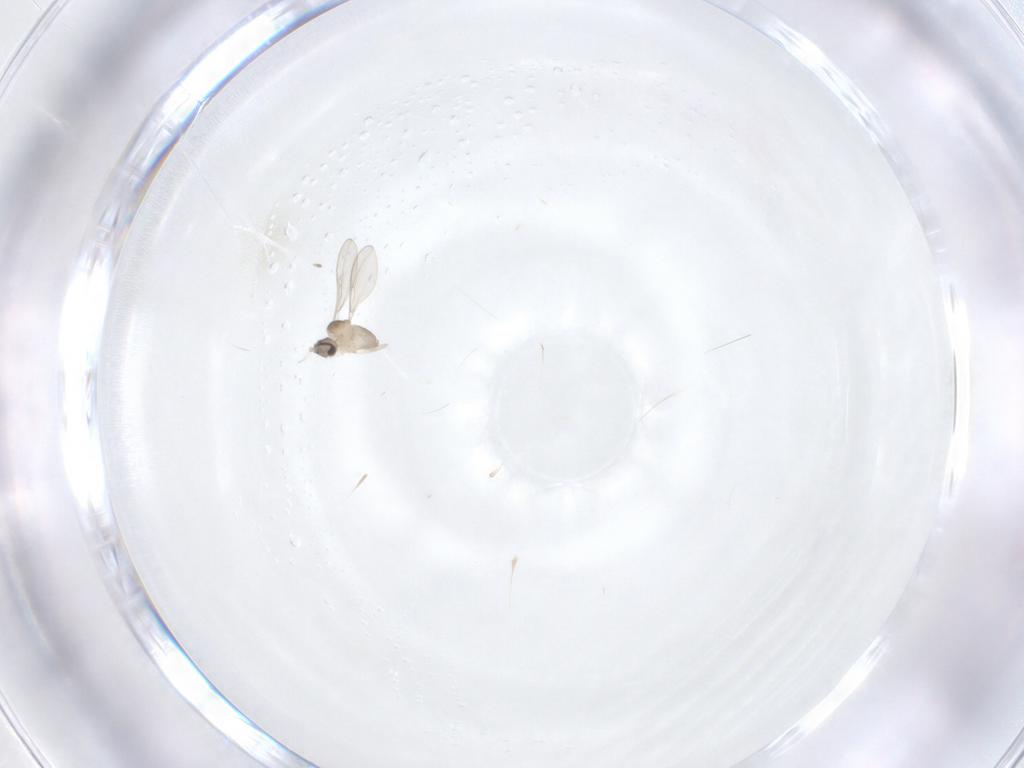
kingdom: Animalia
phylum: Arthropoda
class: Insecta
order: Diptera
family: Cecidomyiidae
